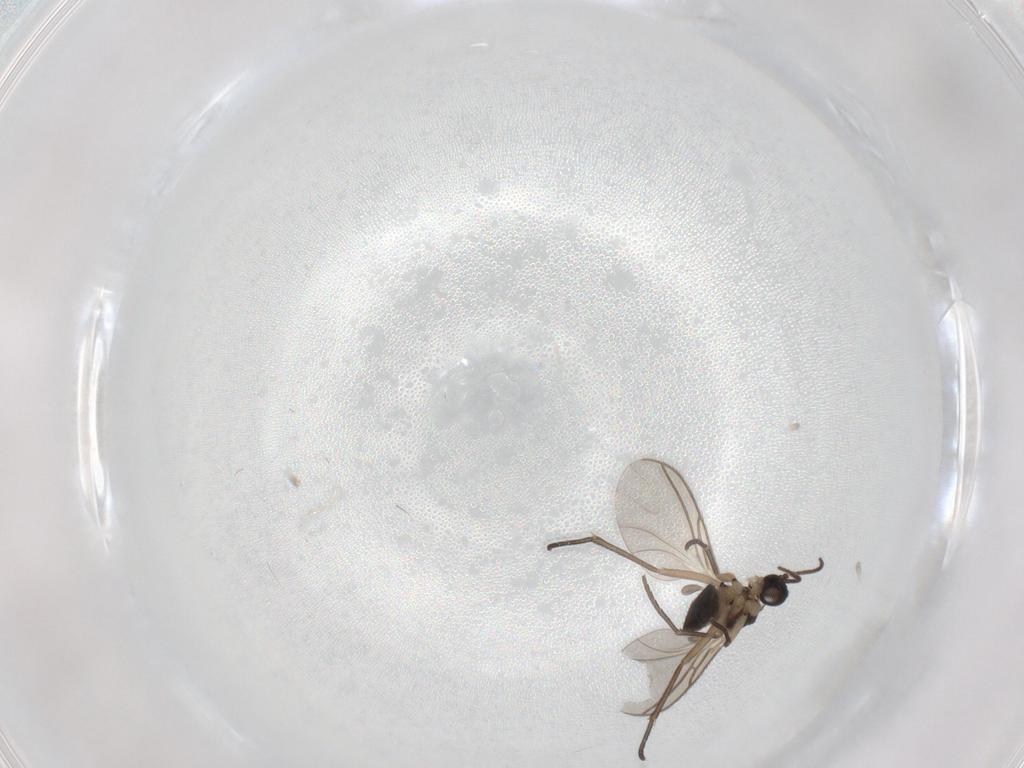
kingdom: Animalia
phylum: Arthropoda
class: Insecta
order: Diptera
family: Sciaridae
